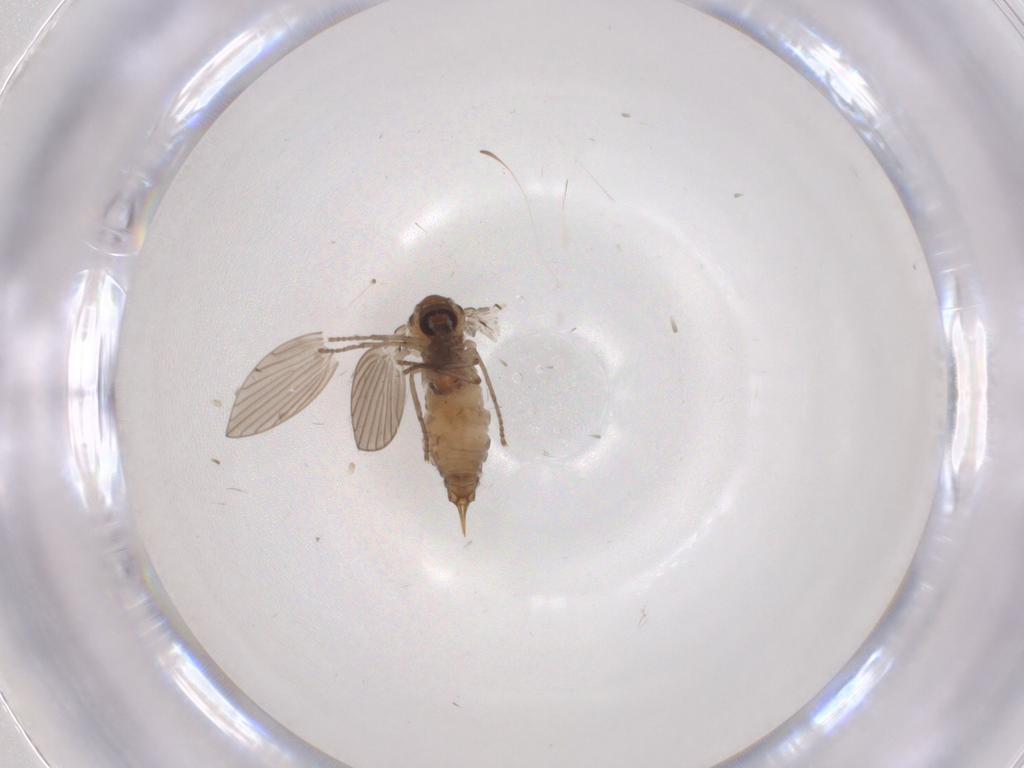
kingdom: Animalia
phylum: Arthropoda
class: Insecta
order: Diptera
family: Psychodidae
